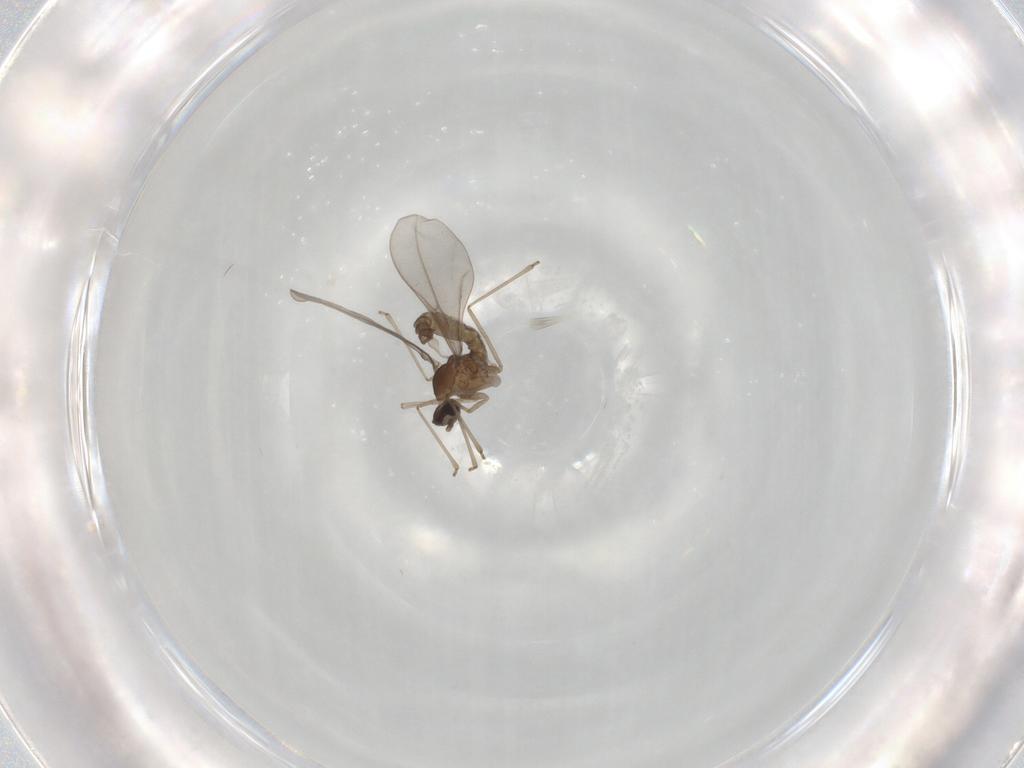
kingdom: Animalia
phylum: Arthropoda
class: Insecta
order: Diptera
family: Cecidomyiidae
